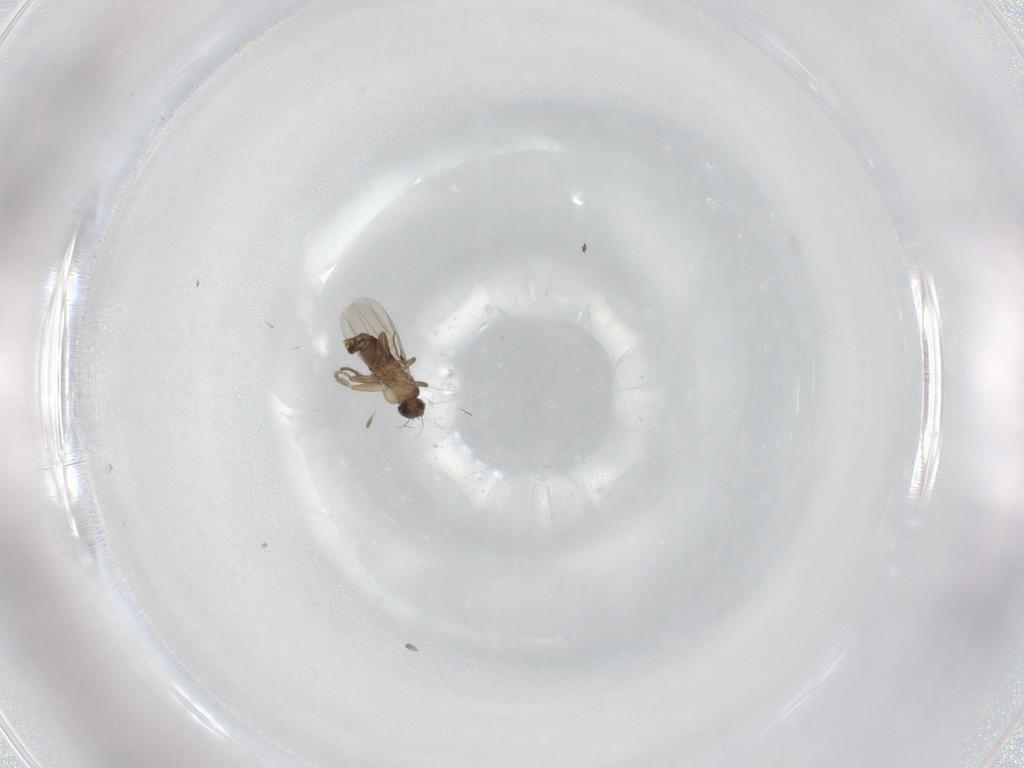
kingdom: Animalia
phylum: Arthropoda
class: Insecta
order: Diptera
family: Phoridae
